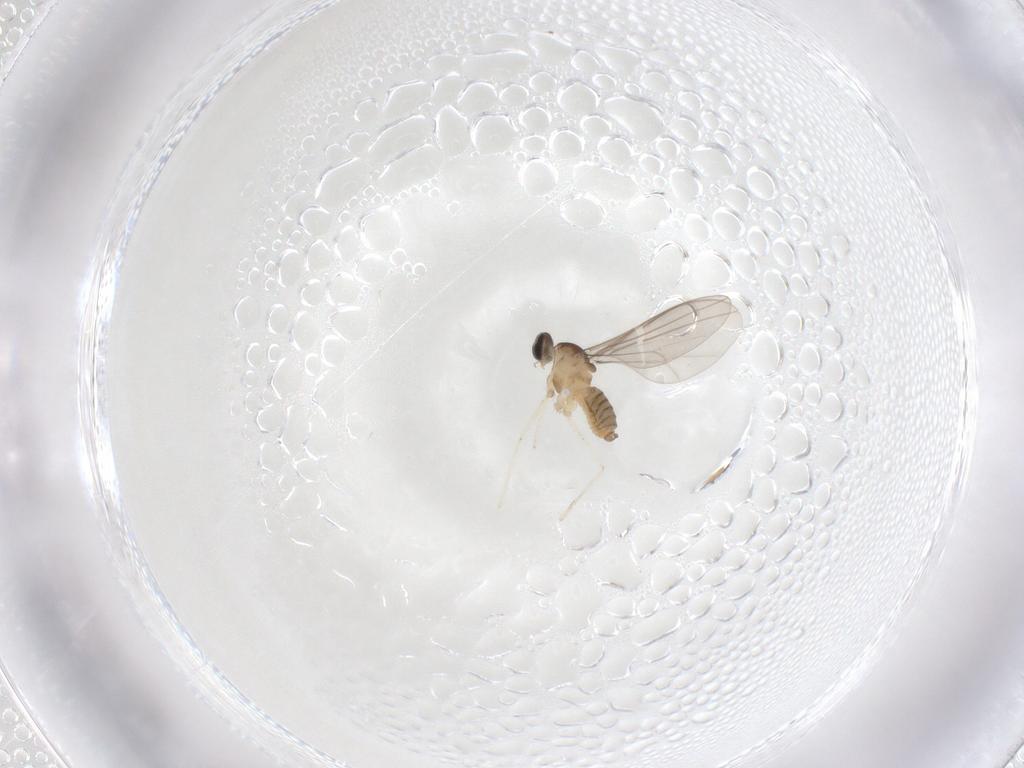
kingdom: Animalia
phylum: Arthropoda
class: Insecta
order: Diptera
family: Cecidomyiidae
